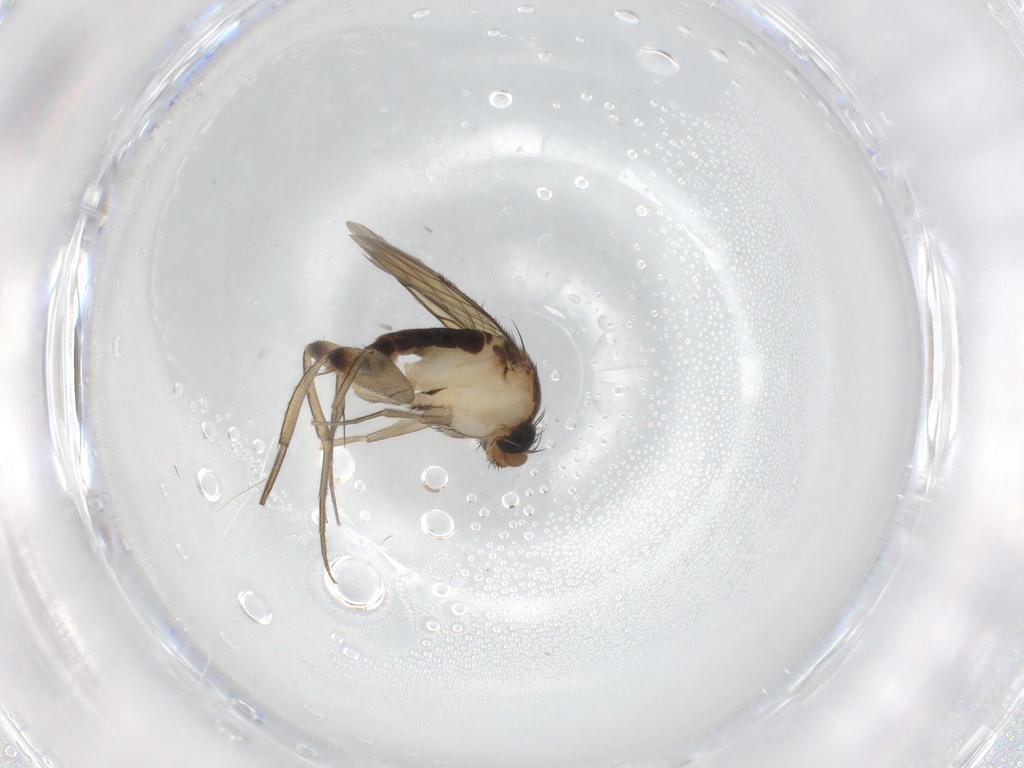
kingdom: Animalia
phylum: Arthropoda
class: Insecta
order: Diptera
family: Phoridae
